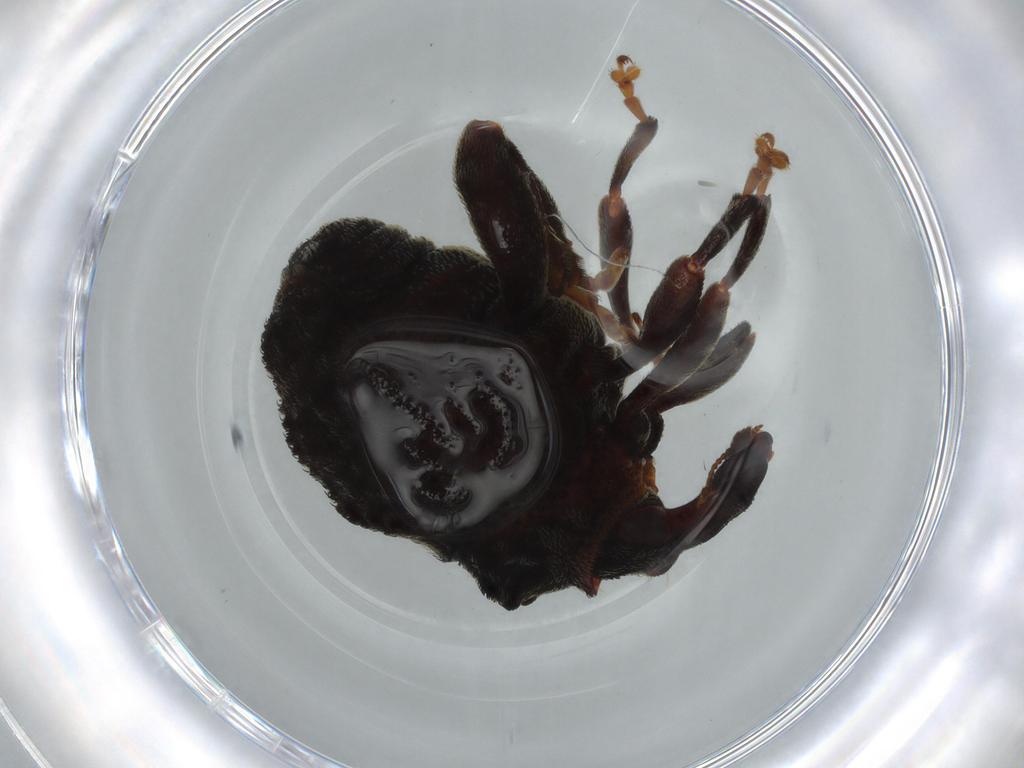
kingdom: Animalia
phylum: Arthropoda
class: Insecta
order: Coleoptera
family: Curculionidae
